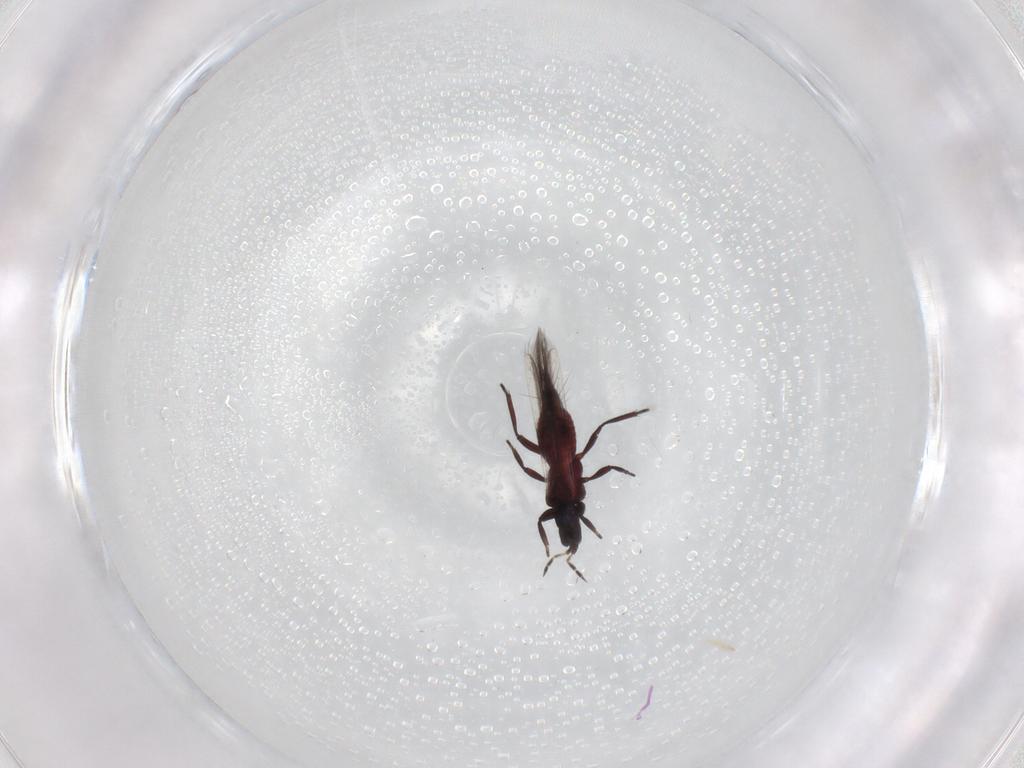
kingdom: Animalia
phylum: Arthropoda
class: Insecta
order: Thysanoptera
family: Aeolothripidae
